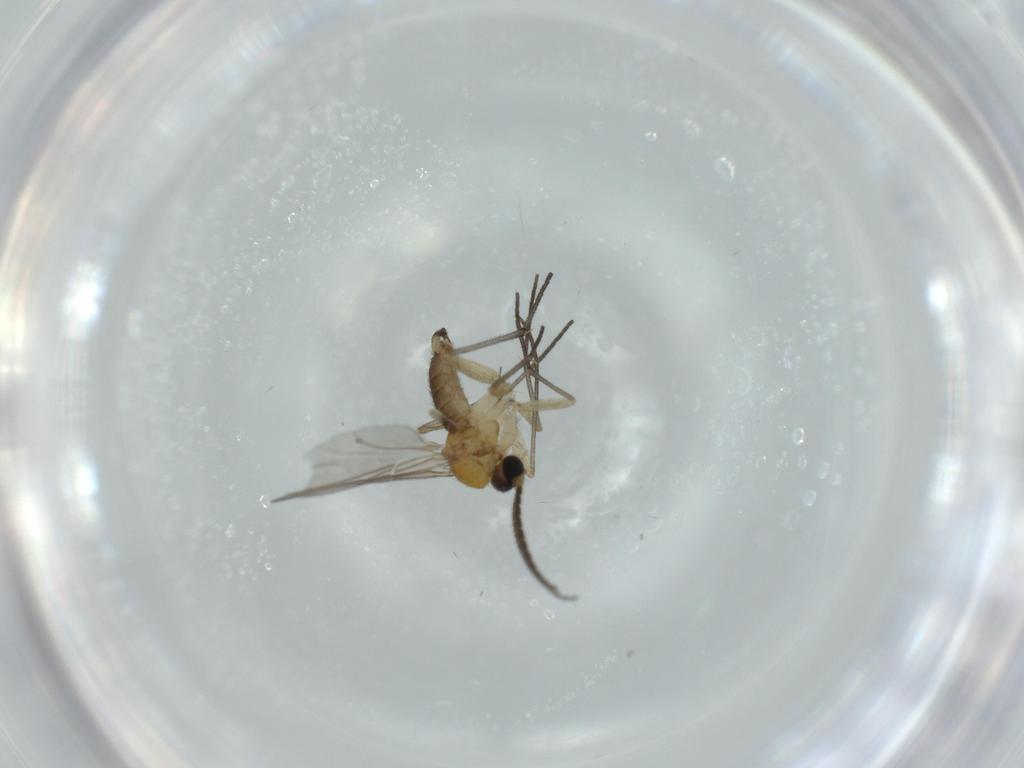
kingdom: Animalia
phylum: Arthropoda
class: Insecta
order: Diptera
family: Sciaridae
